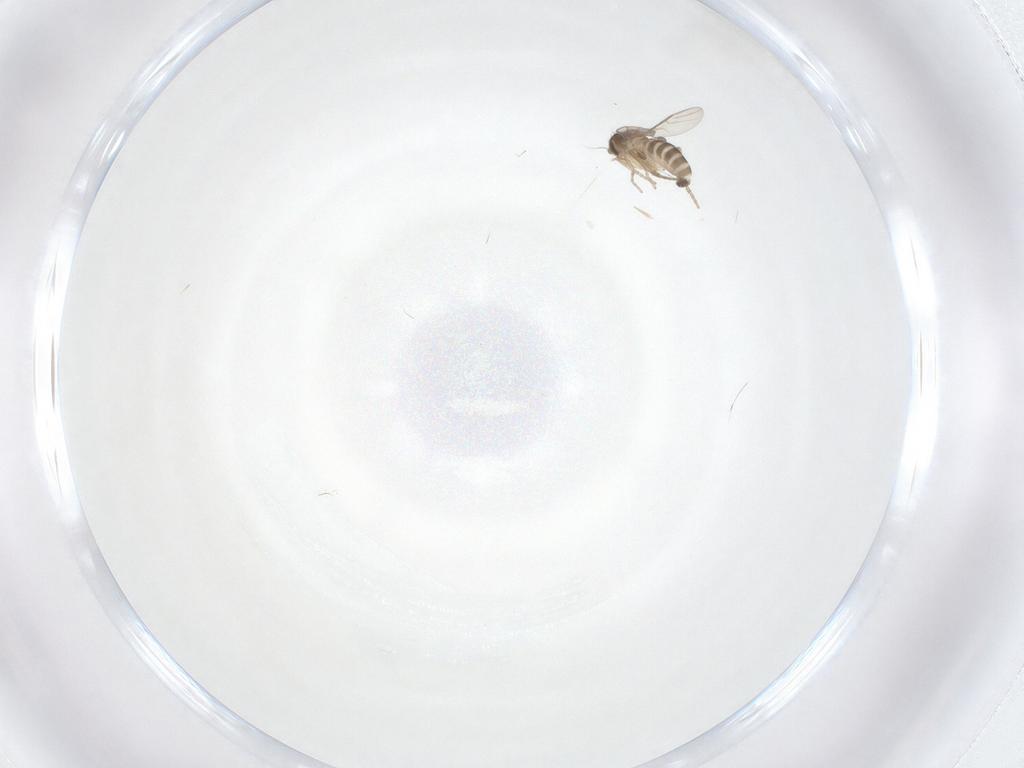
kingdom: Animalia
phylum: Arthropoda
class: Insecta
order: Diptera
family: Phoridae
